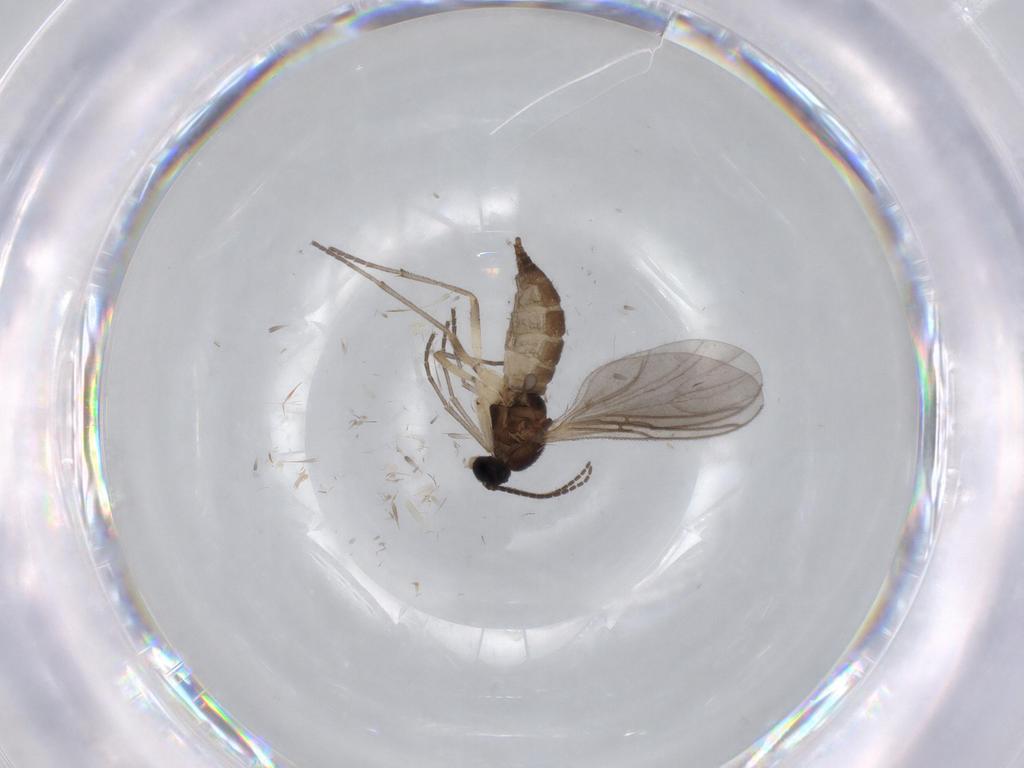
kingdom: Animalia
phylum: Arthropoda
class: Insecta
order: Diptera
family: Sciaridae
